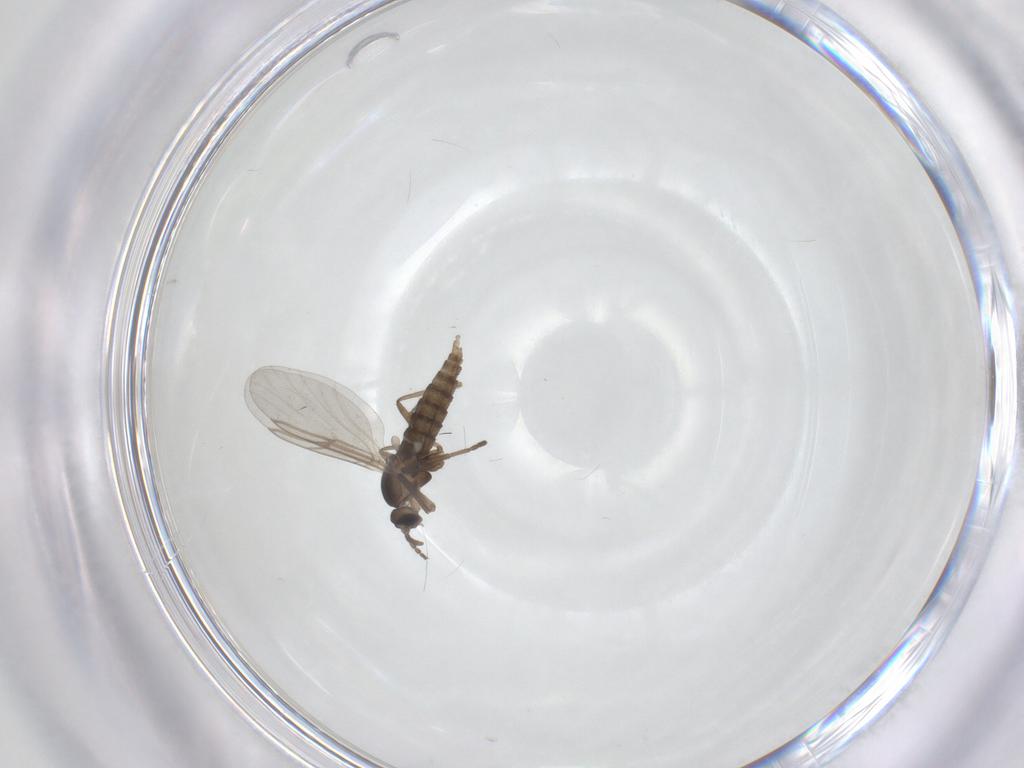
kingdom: Animalia
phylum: Arthropoda
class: Insecta
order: Diptera
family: Cecidomyiidae
